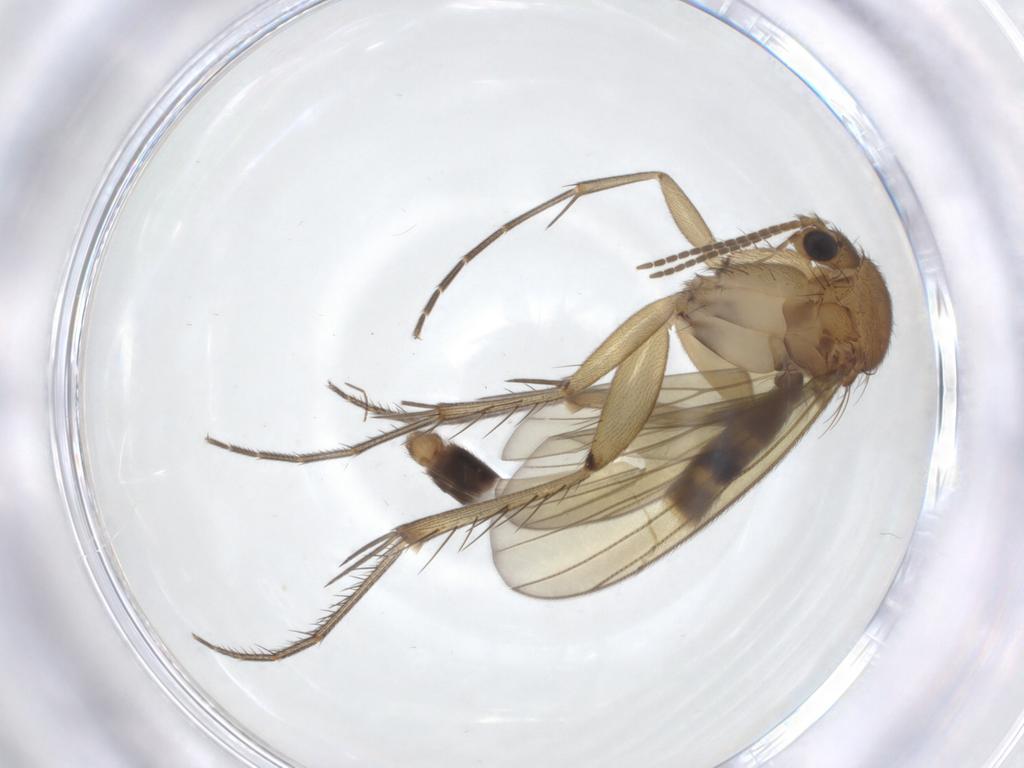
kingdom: Animalia
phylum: Arthropoda
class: Insecta
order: Diptera
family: Mycetophilidae
